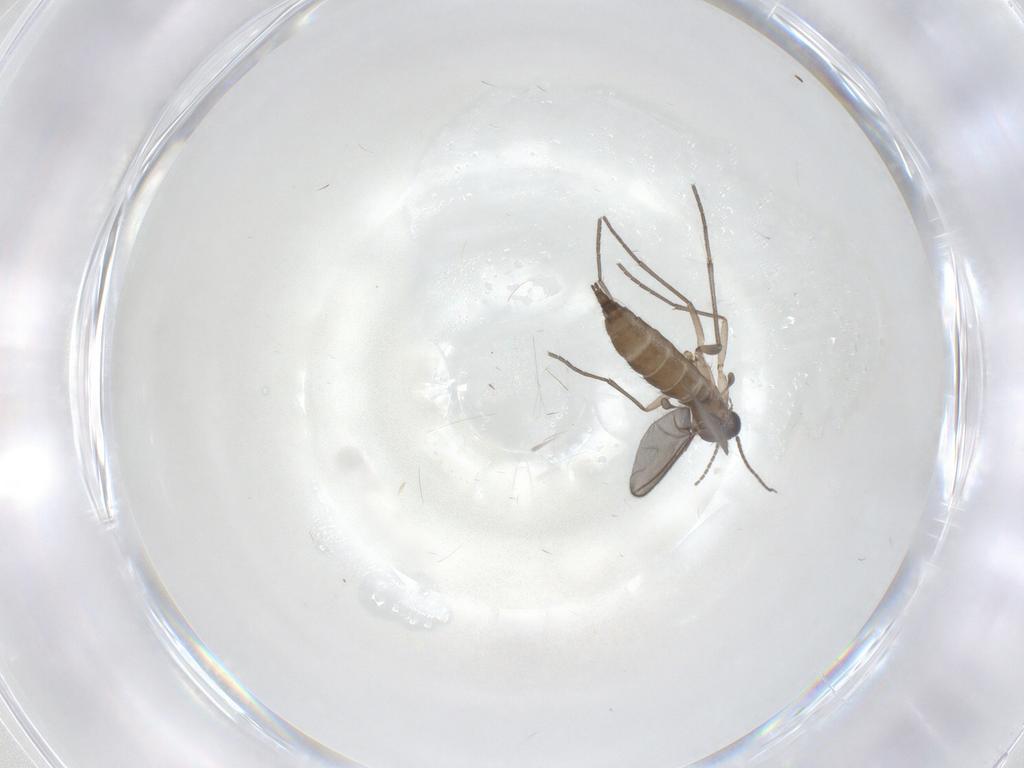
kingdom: Animalia
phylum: Arthropoda
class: Insecta
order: Diptera
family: Sciaridae
